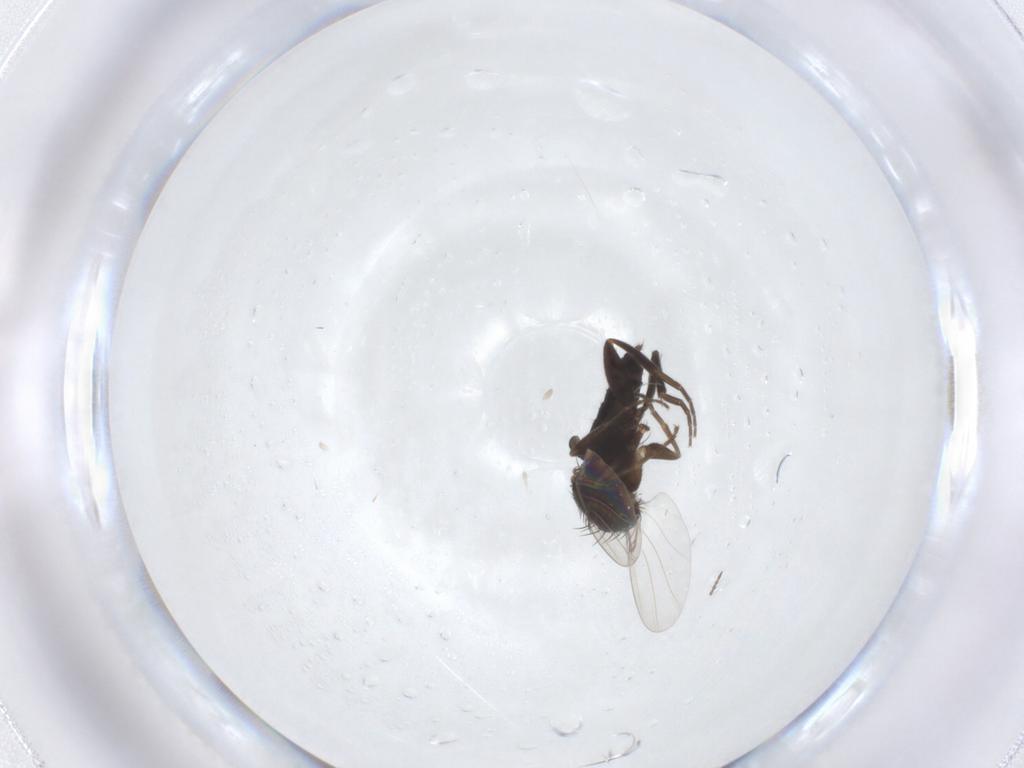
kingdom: Animalia
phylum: Arthropoda
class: Insecta
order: Diptera
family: Phoridae
